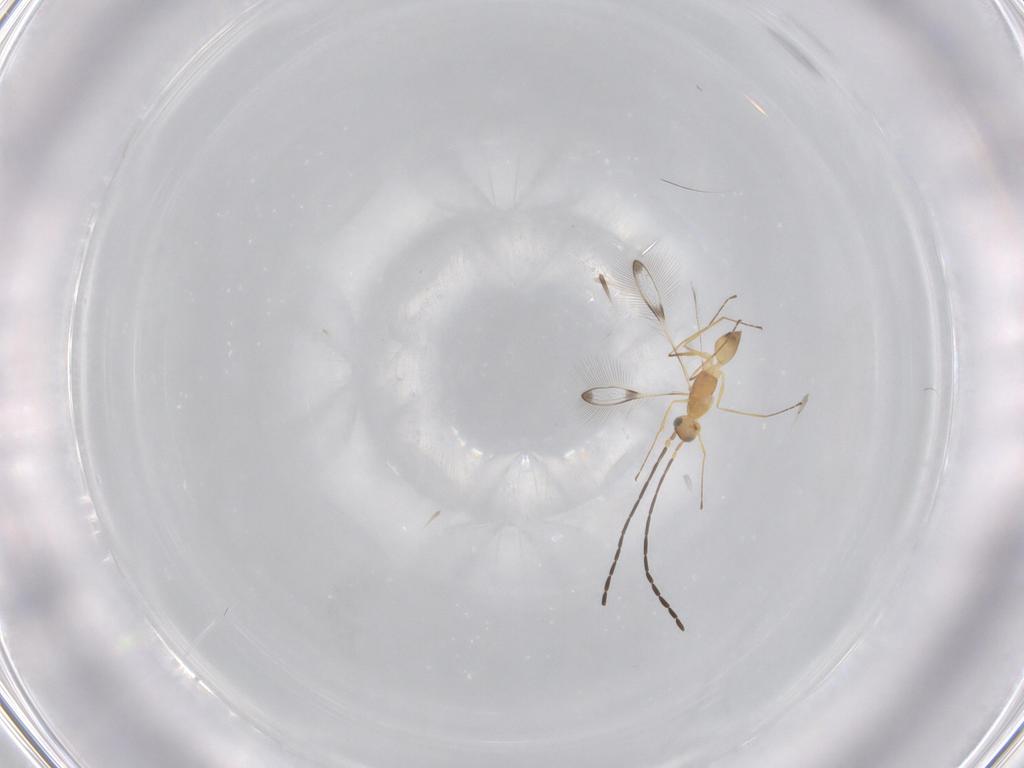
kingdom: Animalia
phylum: Arthropoda
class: Insecta
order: Hymenoptera
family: Mymaridae
